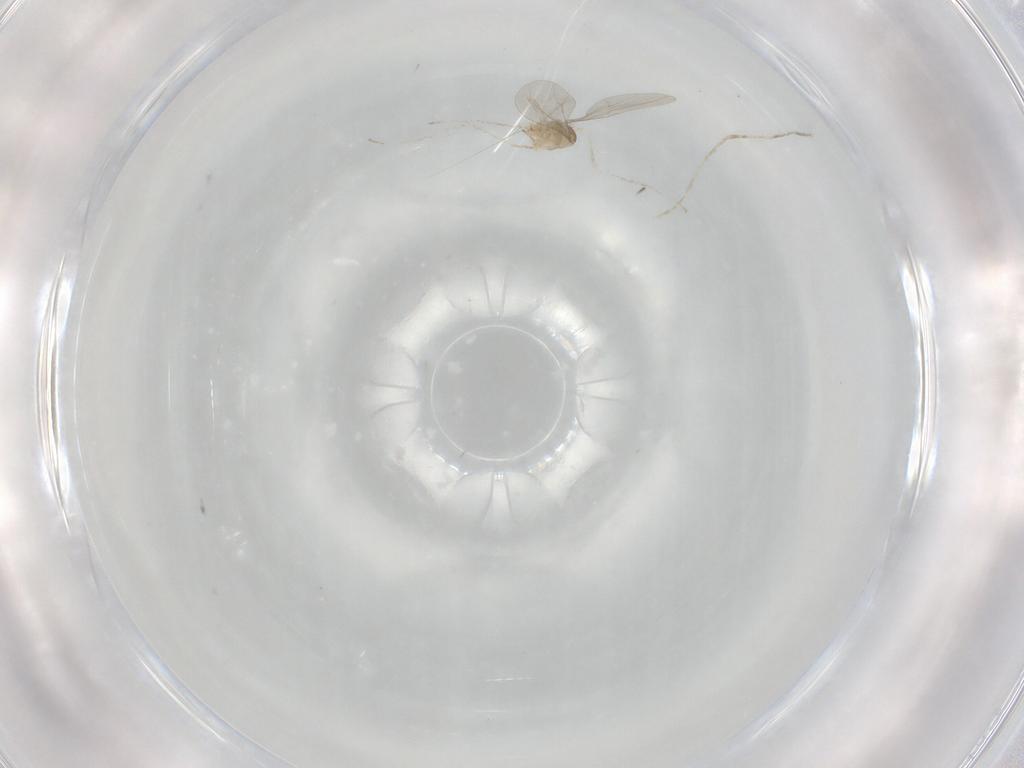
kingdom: Animalia
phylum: Arthropoda
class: Insecta
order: Diptera
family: Cecidomyiidae
